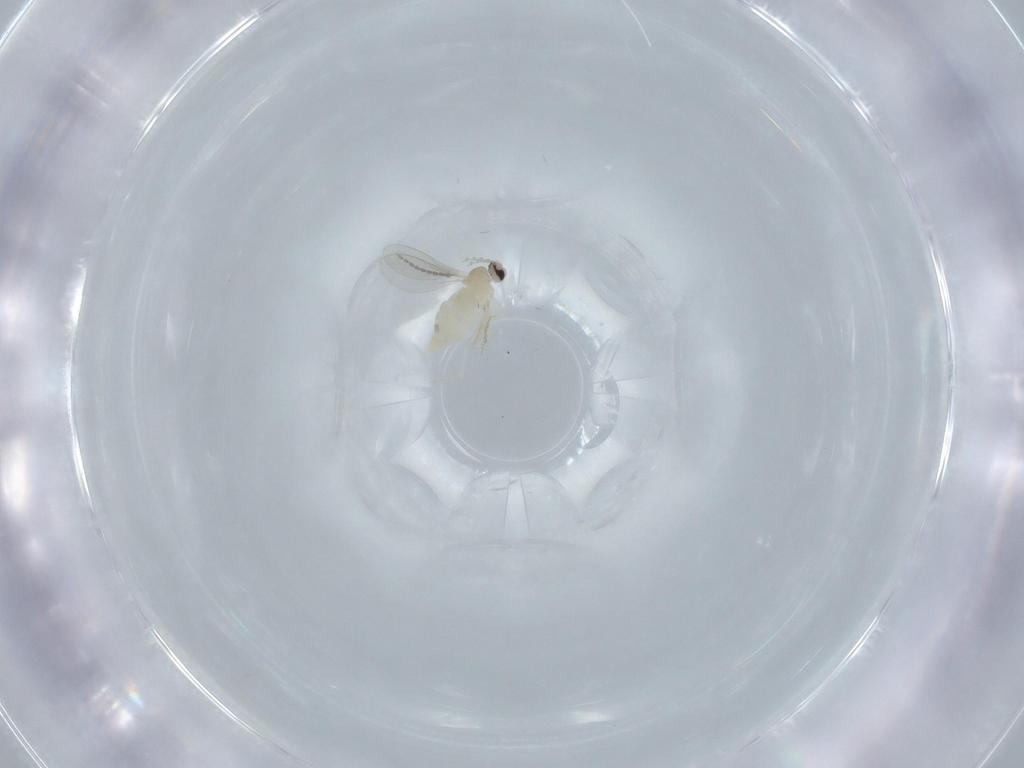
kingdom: Animalia
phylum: Arthropoda
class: Insecta
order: Diptera
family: Cecidomyiidae
